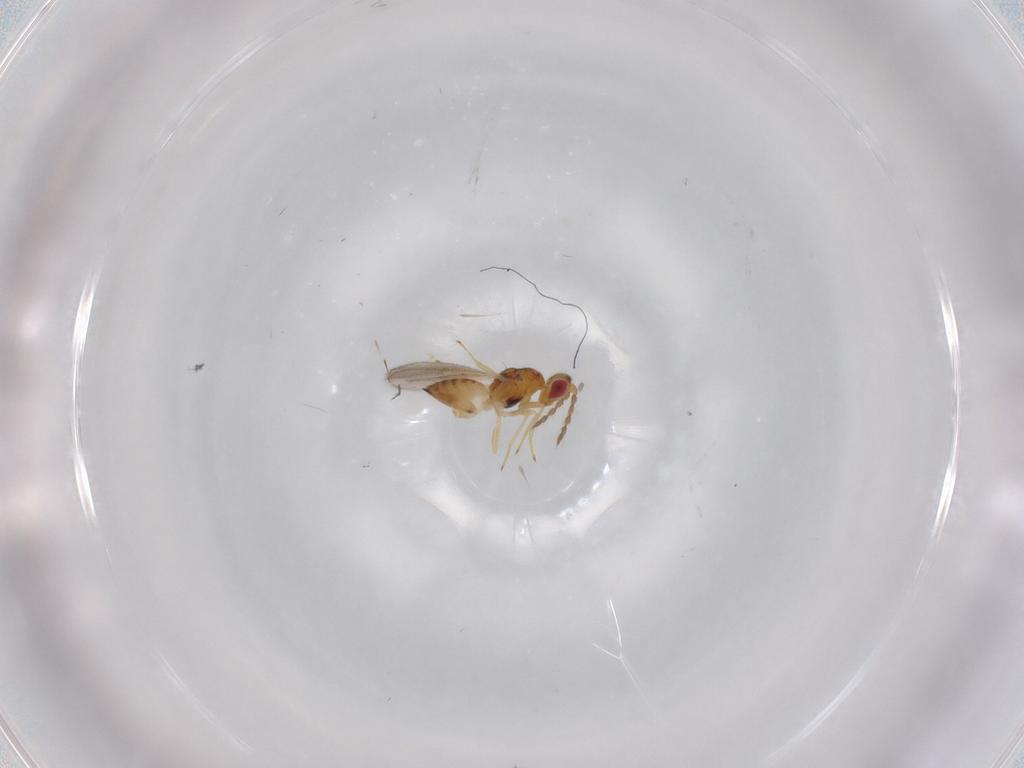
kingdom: Animalia
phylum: Arthropoda
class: Insecta
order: Hymenoptera
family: Eulophidae
